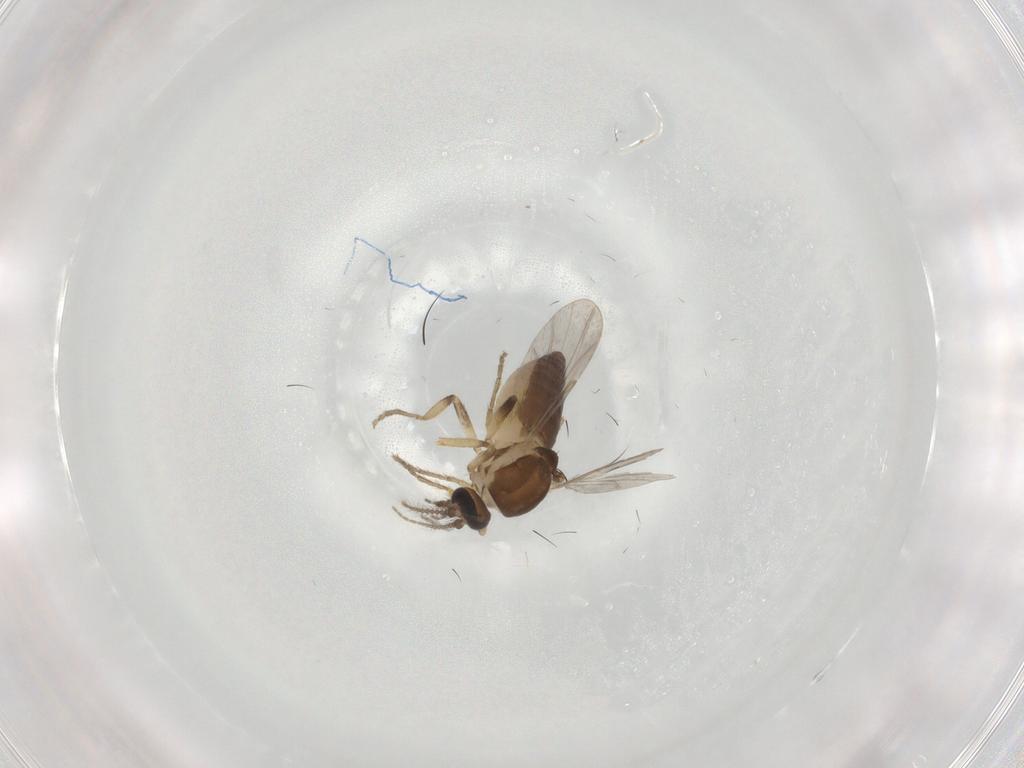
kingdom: Animalia
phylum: Arthropoda
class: Insecta
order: Diptera
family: Ceratopogonidae
